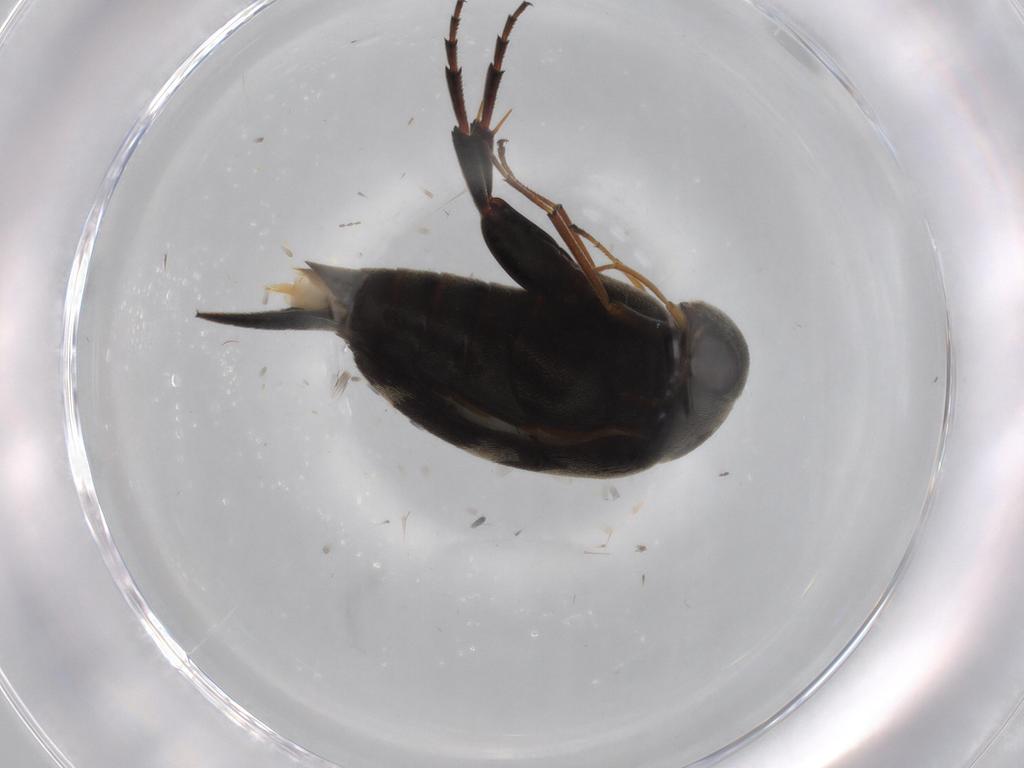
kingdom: Animalia
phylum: Arthropoda
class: Insecta
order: Coleoptera
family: Mordellidae
